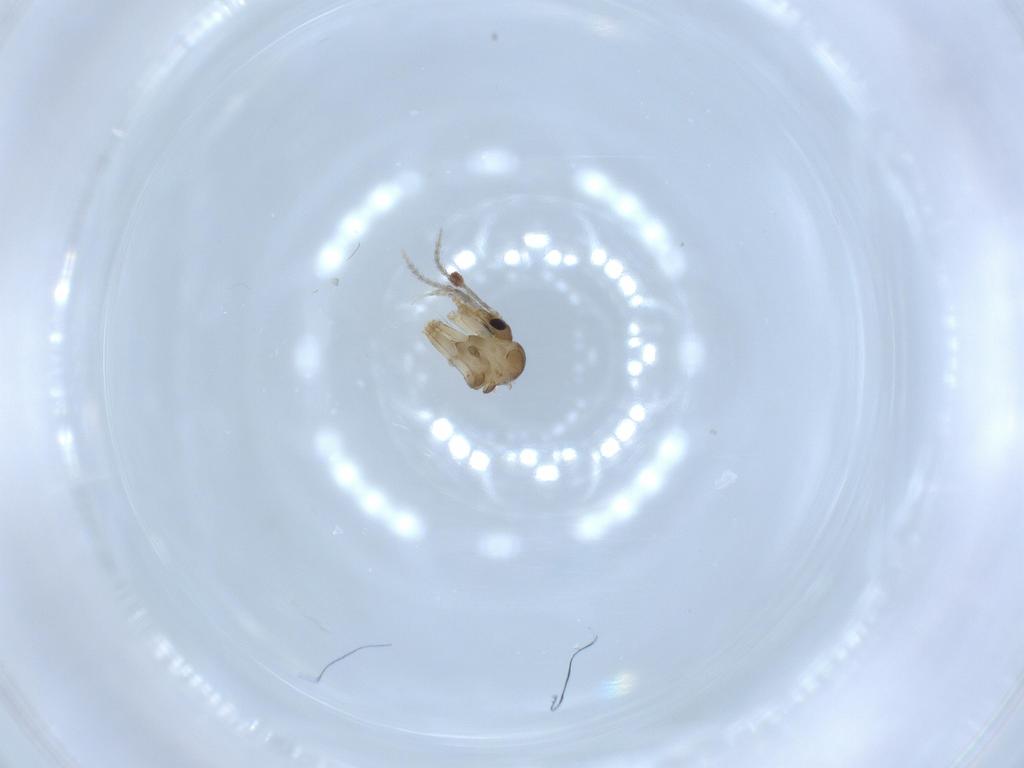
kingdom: Animalia
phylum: Arthropoda
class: Insecta
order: Diptera
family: Psychodidae
